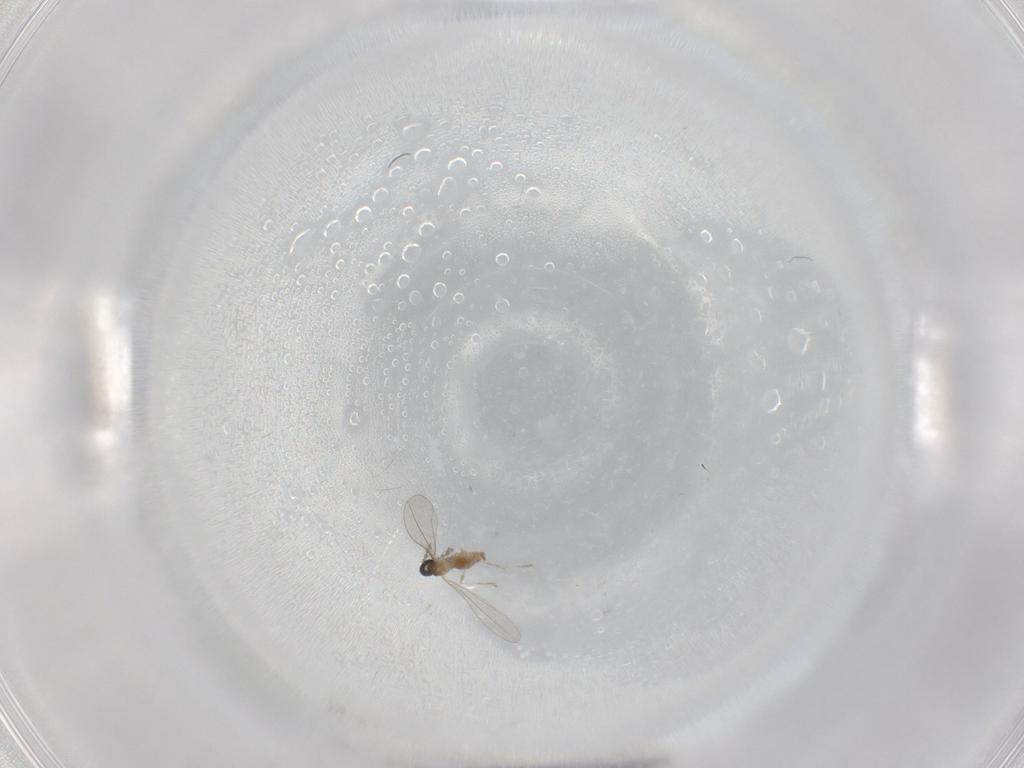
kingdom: Animalia
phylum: Arthropoda
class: Insecta
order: Diptera
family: Cecidomyiidae
